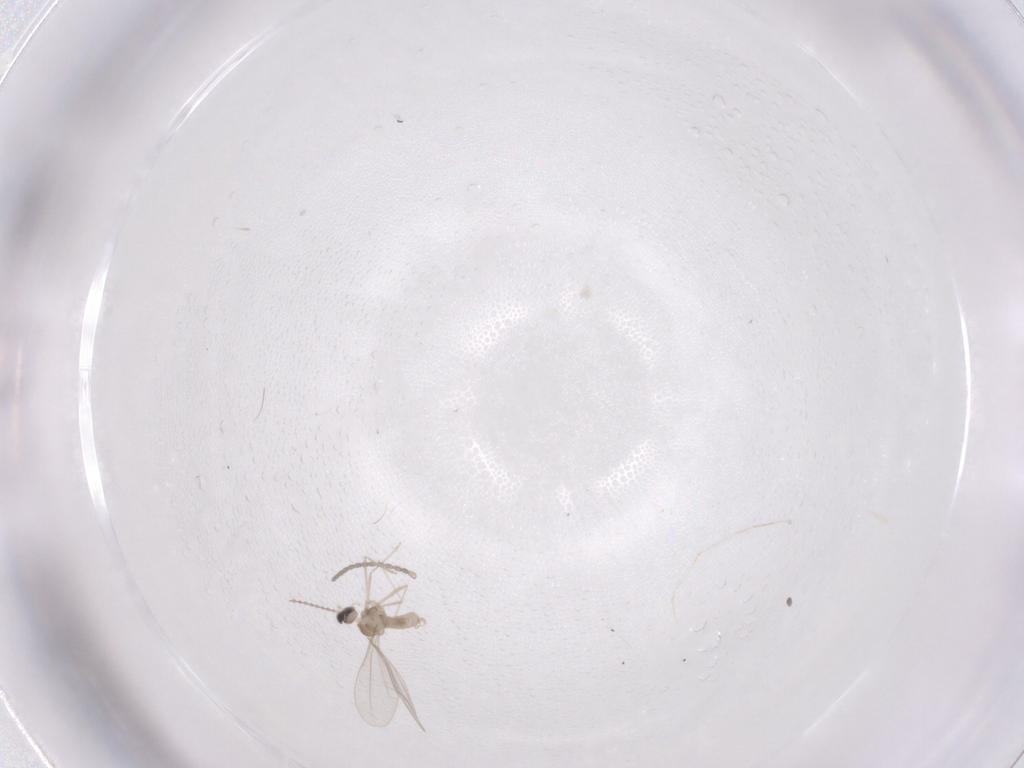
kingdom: Animalia
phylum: Arthropoda
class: Insecta
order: Diptera
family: Cecidomyiidae
